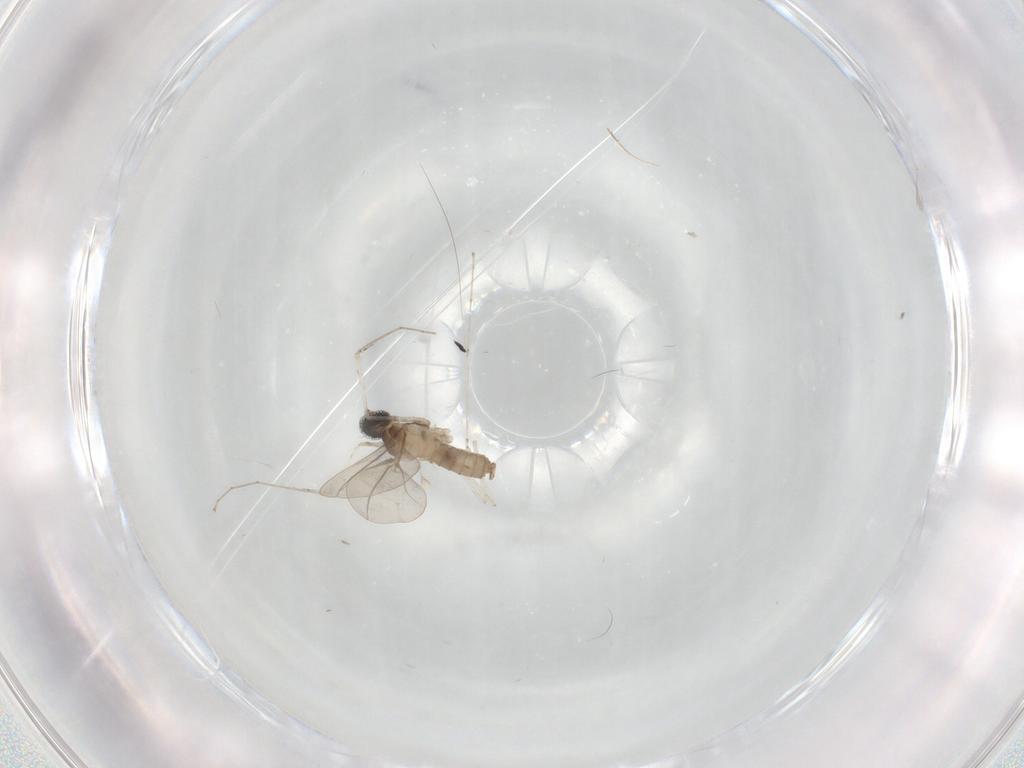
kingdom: Animalia
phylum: Arthropoda
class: Insecta
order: Diptera
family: Cecidomyiidae
